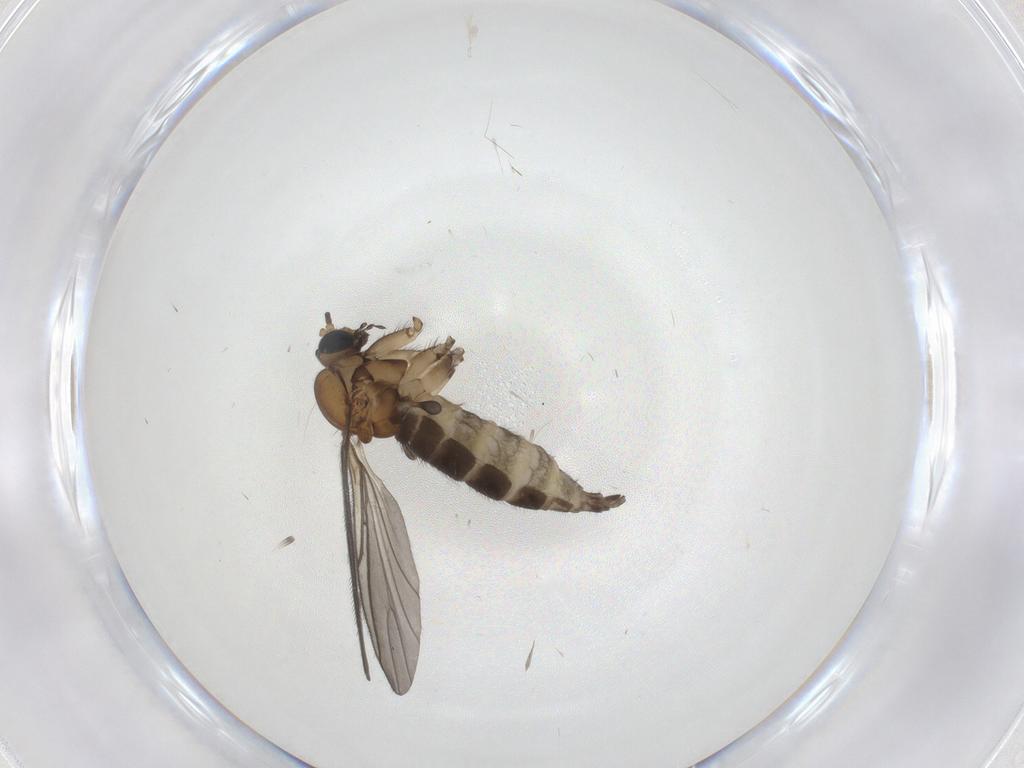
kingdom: Animalia
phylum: Arthropoda
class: Insecta
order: Diptera
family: Sciaridae
